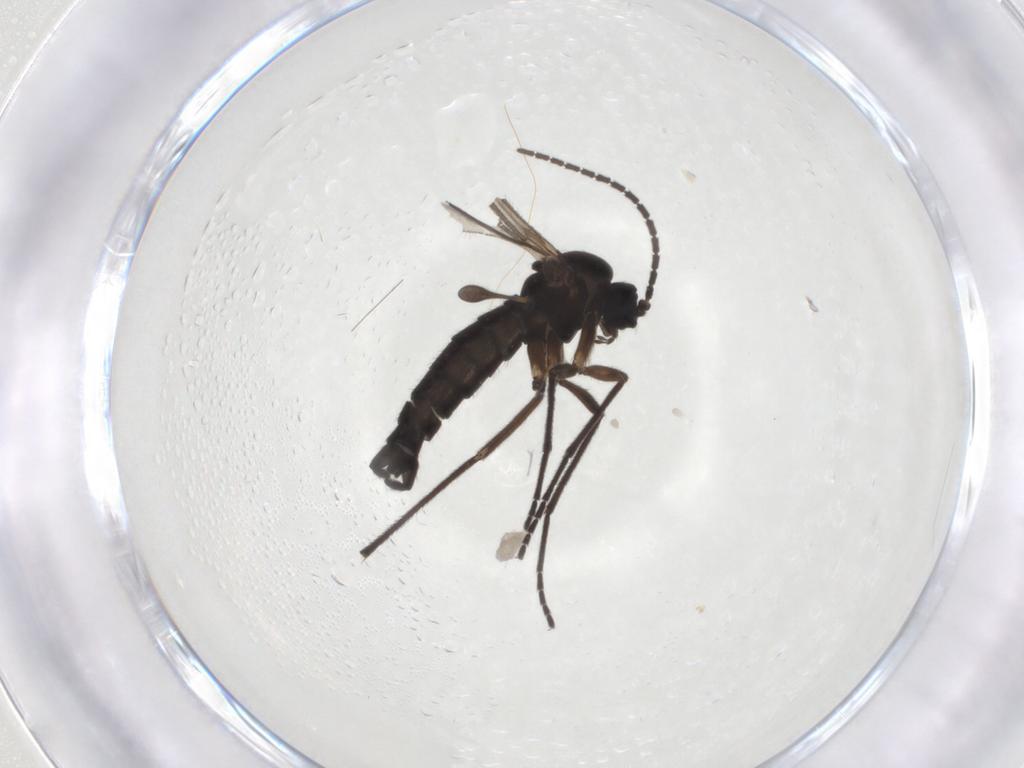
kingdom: Animalia
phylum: Arthropoda
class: Insecta
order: Diptera
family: Sciaridae
